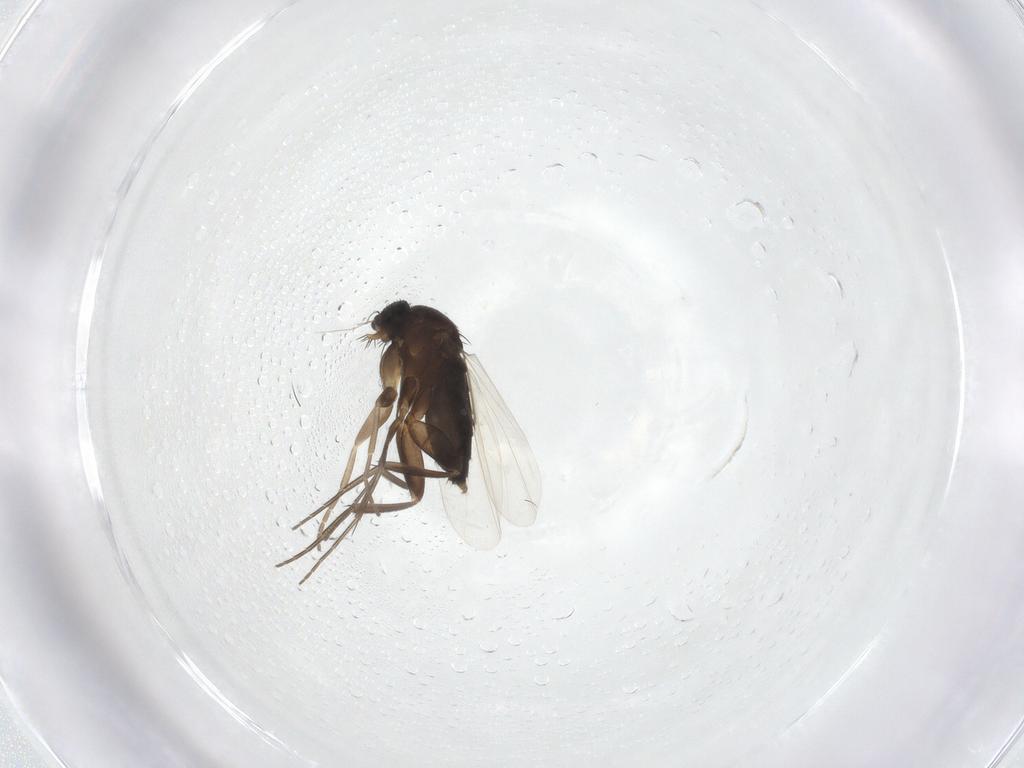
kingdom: Animalia
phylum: Arthropoda
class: Insecta
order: Diptera
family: Phoridae
